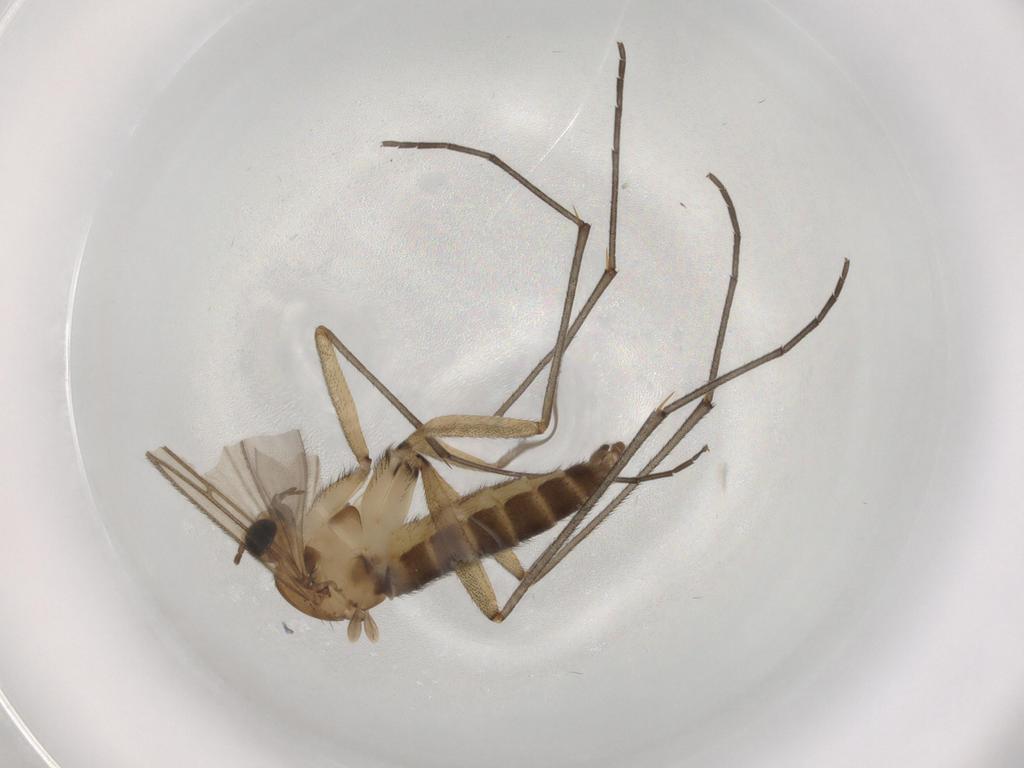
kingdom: Animalia
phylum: Arthropoda
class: Insecta
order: Diptera
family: Sciaridae
